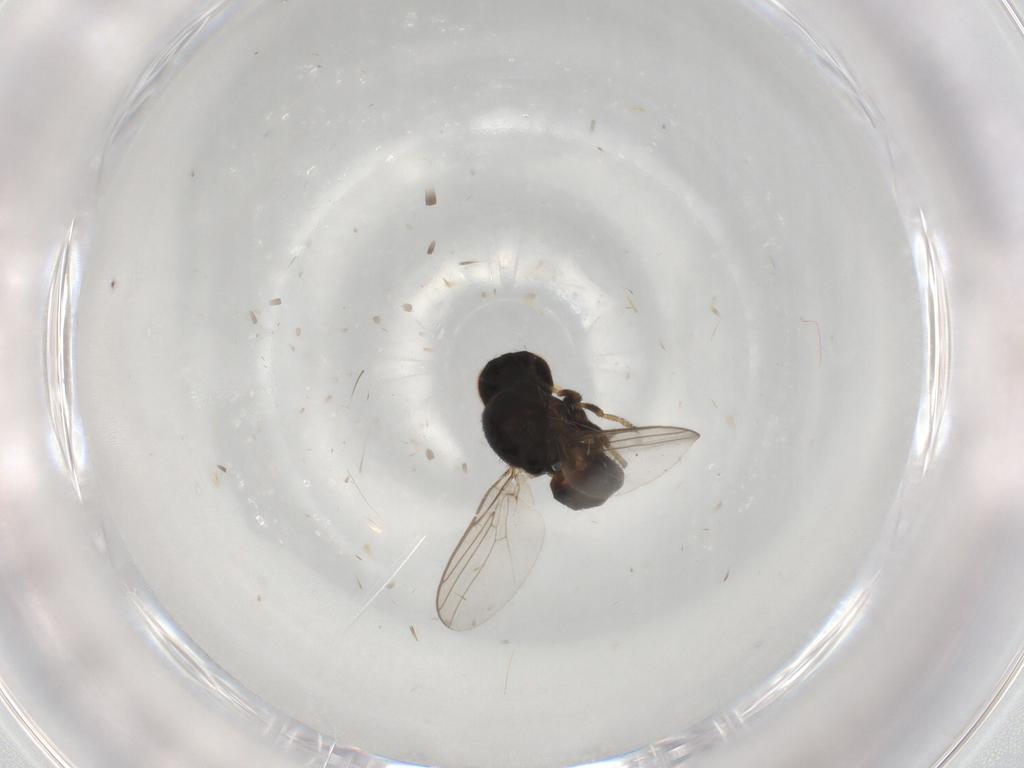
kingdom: Animalia
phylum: Arthropoda
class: Insecta
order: Diptera
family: Chloropidae
